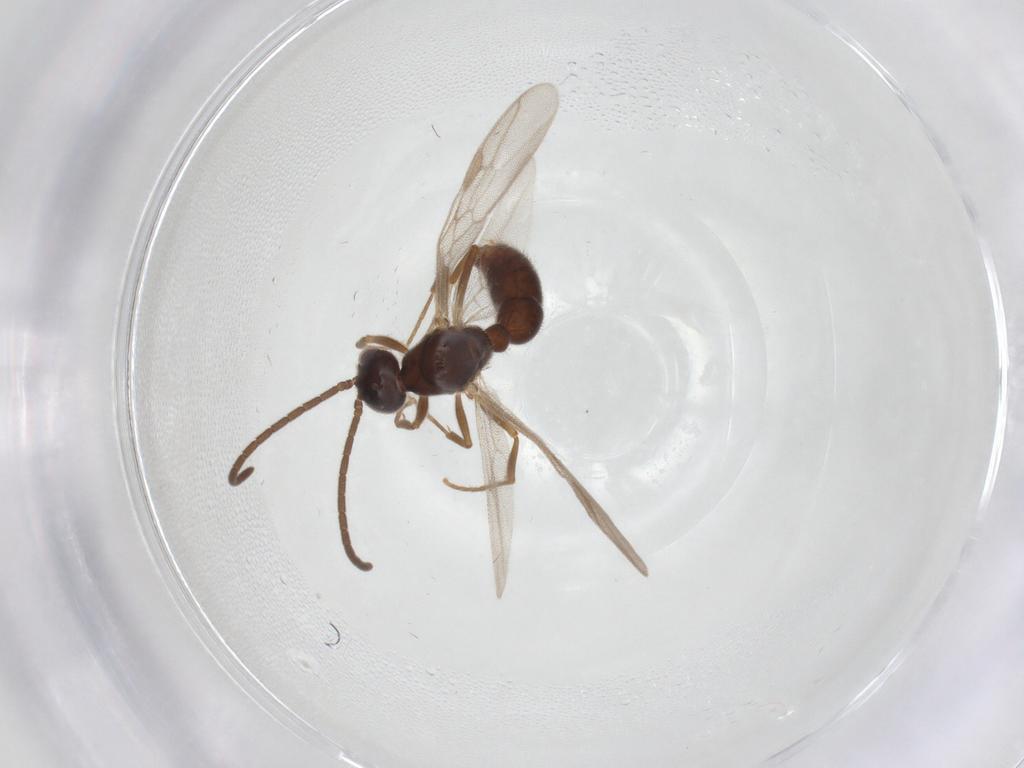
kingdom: Animalia
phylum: Arthropoda
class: Insecta
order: Hymenoptera
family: Formicidae
